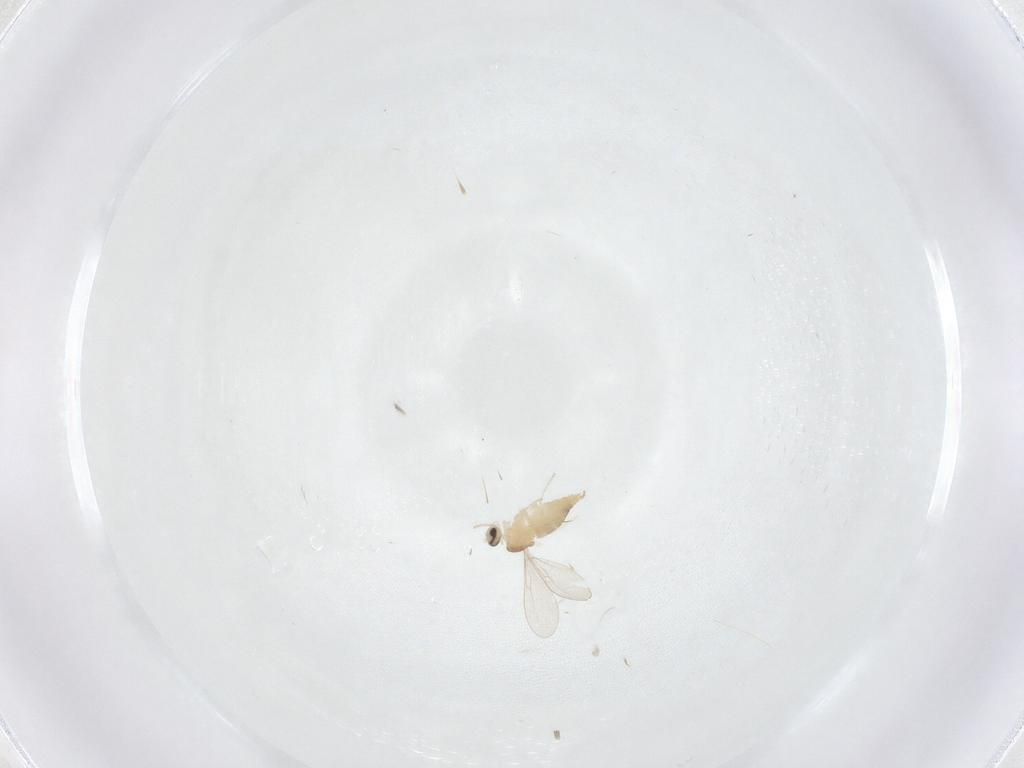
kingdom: Animalia
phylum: Arthropoda
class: Insecta
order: Diptera
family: Cecidomyiidae
